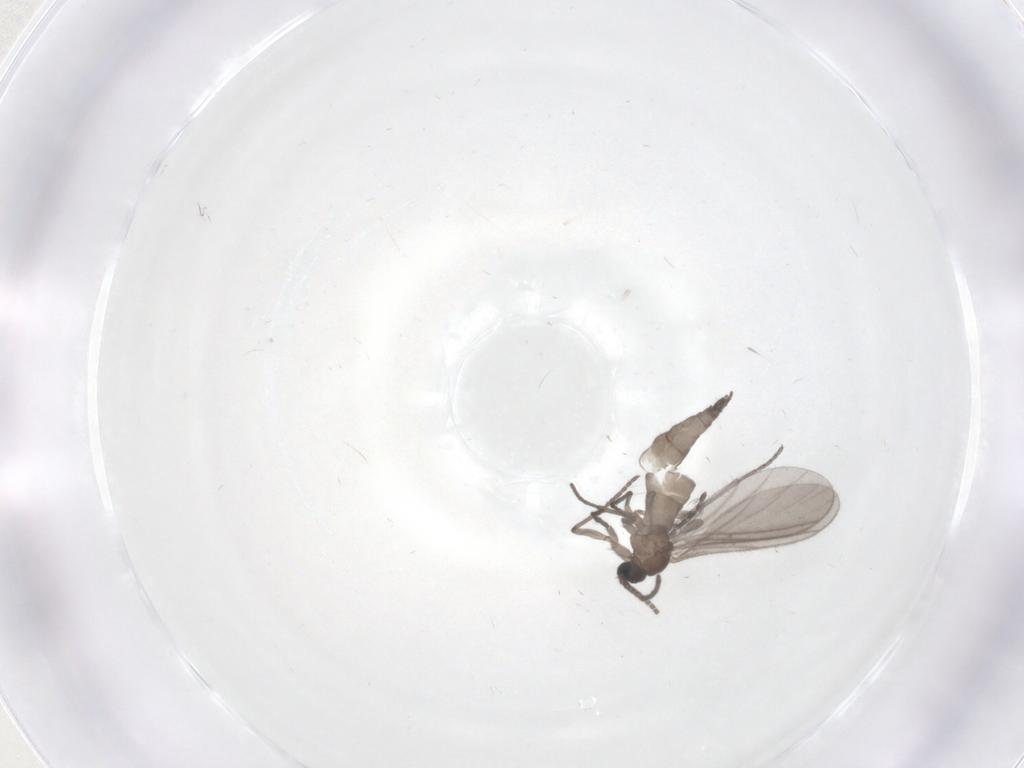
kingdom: Animalia
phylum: Arthropoda
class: Insecta
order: Diptera
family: Sciaridae
